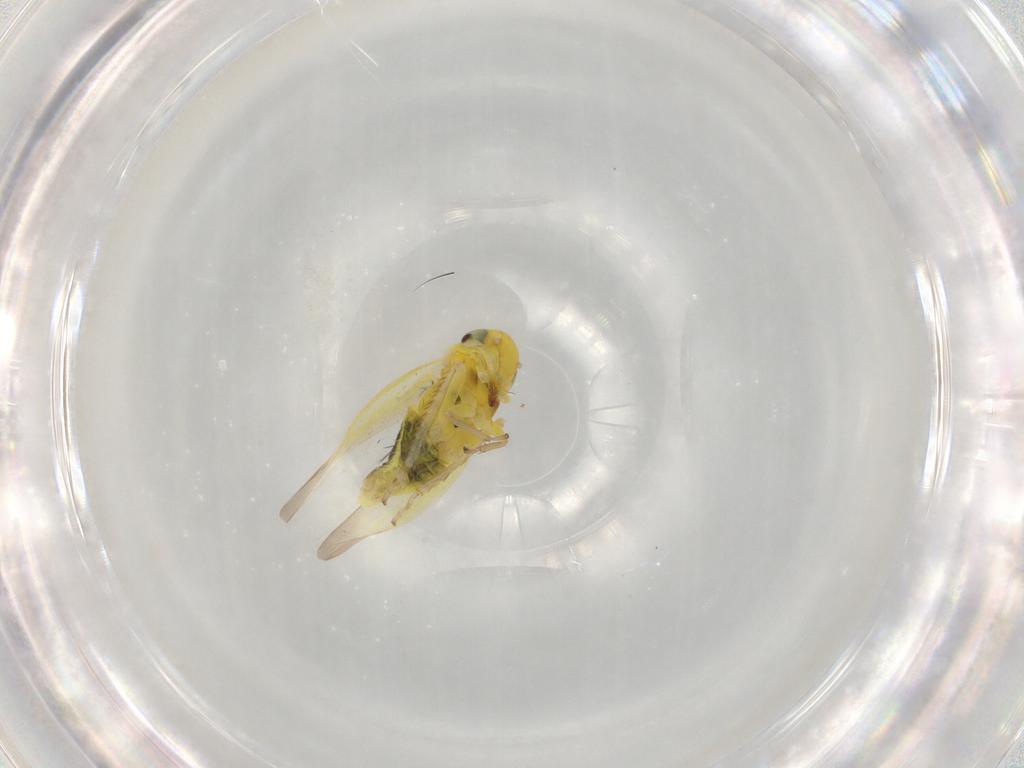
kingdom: Animalia
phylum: Arthropoda
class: Insecta
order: Hemiptera
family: Cicadellidae
